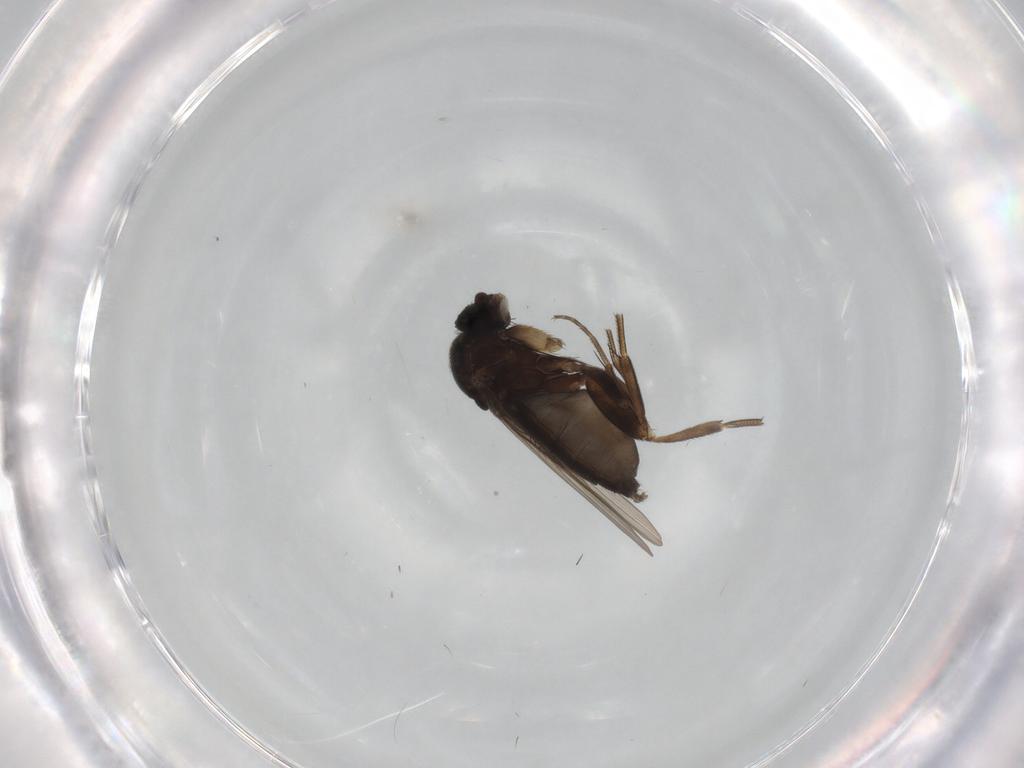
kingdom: Animalia
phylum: Arthropoda
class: Insecta
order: Diptera
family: Phoridae
